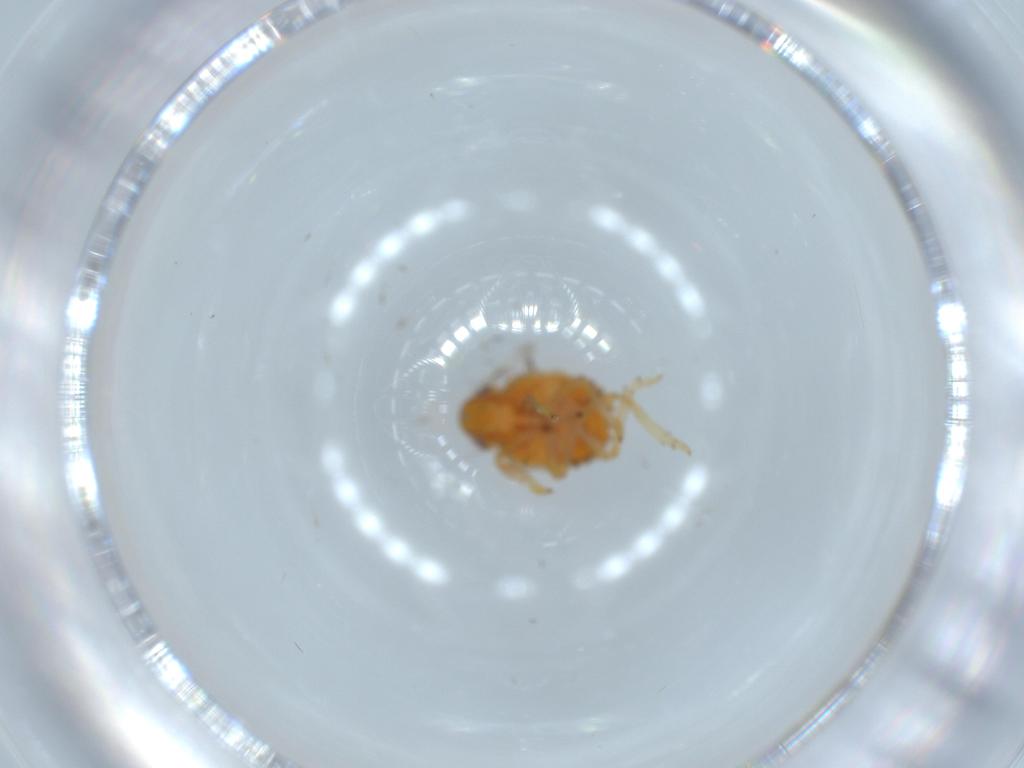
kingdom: Animalia
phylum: Arthropoda
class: Insecta
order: Hemiptera
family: Issidae
